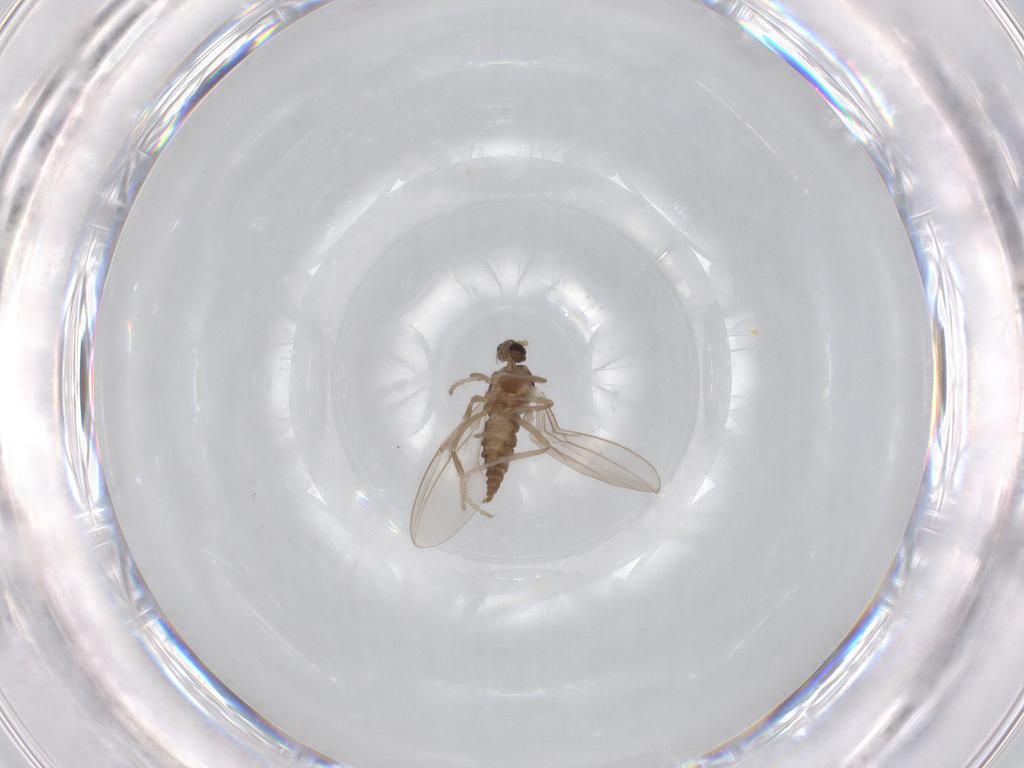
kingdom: Animalia
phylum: Arthropoda
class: Insecta
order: Diptera
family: Cecidomyiidae
